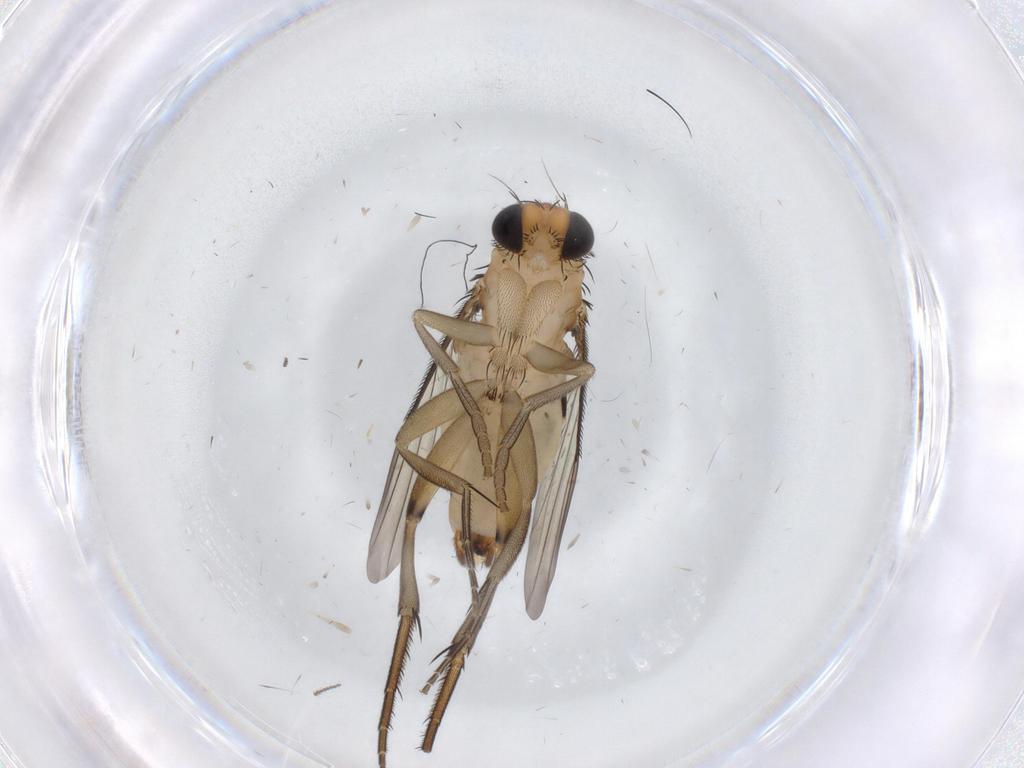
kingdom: Animalia
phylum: Arthropoda
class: Insecta
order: Diptera
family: Phoridae
